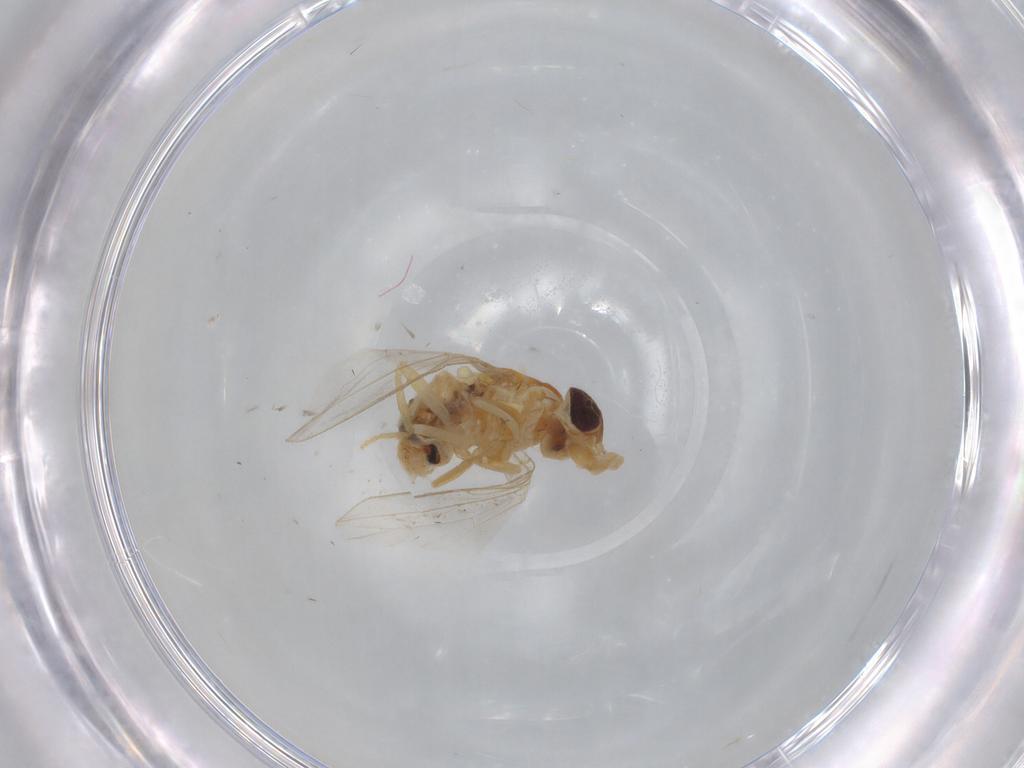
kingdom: Animalia
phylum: Arthropoda
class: Insecta
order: Diptera
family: Asteiidae
